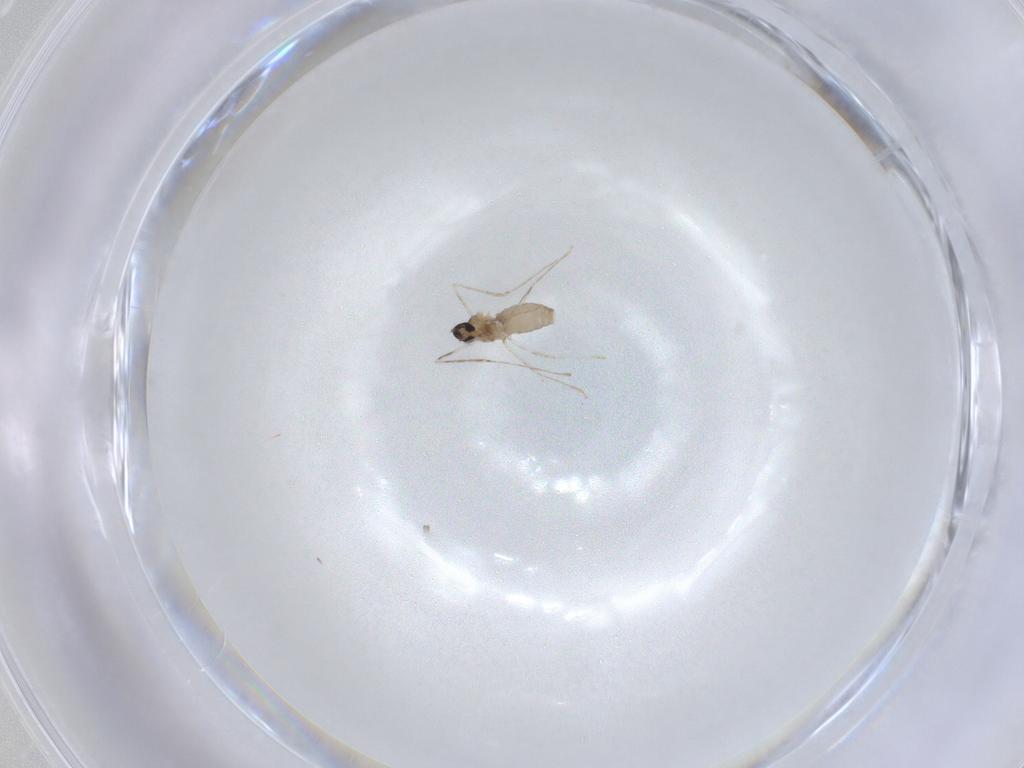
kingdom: Animalia
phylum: Arthropoda
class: Insecta
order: Diptera
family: Cecidomyiidae
